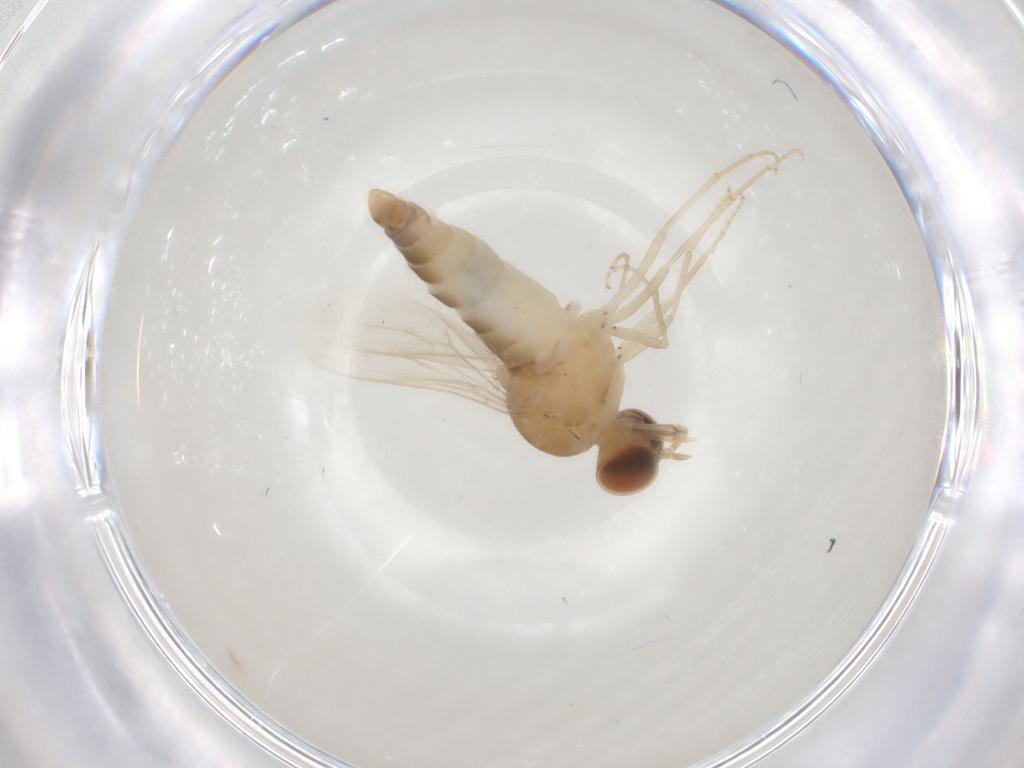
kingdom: Animalia
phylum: Arthropoda
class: Insecta
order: Diptera
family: Scenopinidae
